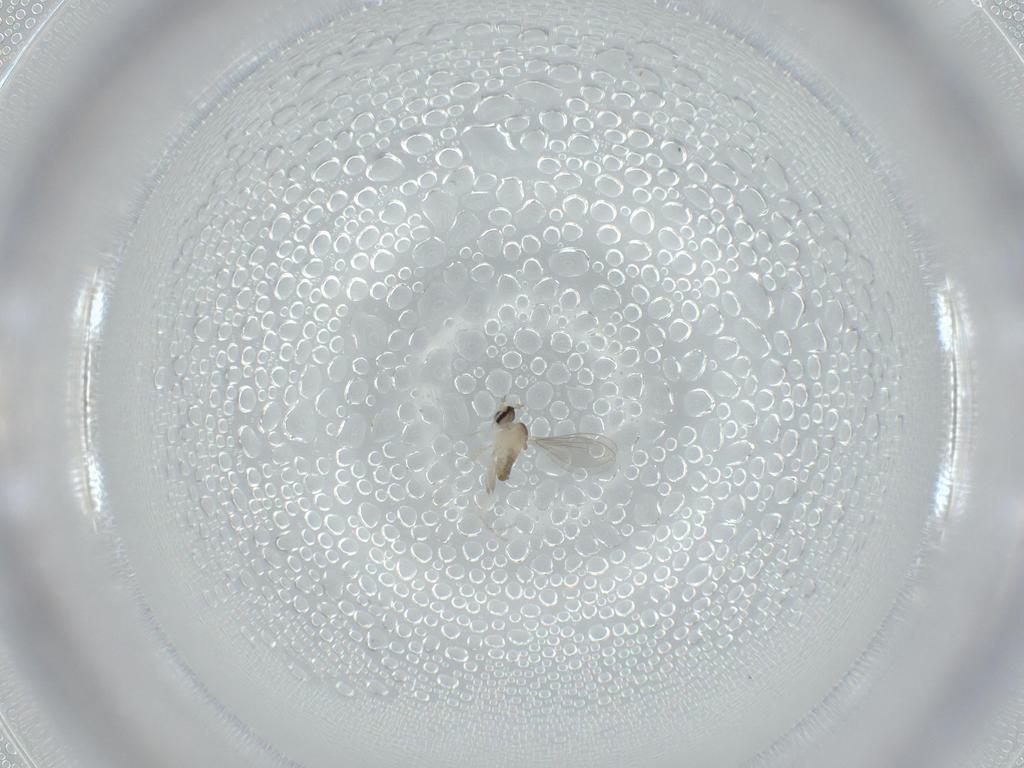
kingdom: Animalia
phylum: Arthropoda
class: Insecta
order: Diptera
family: Cecidomyiidae
